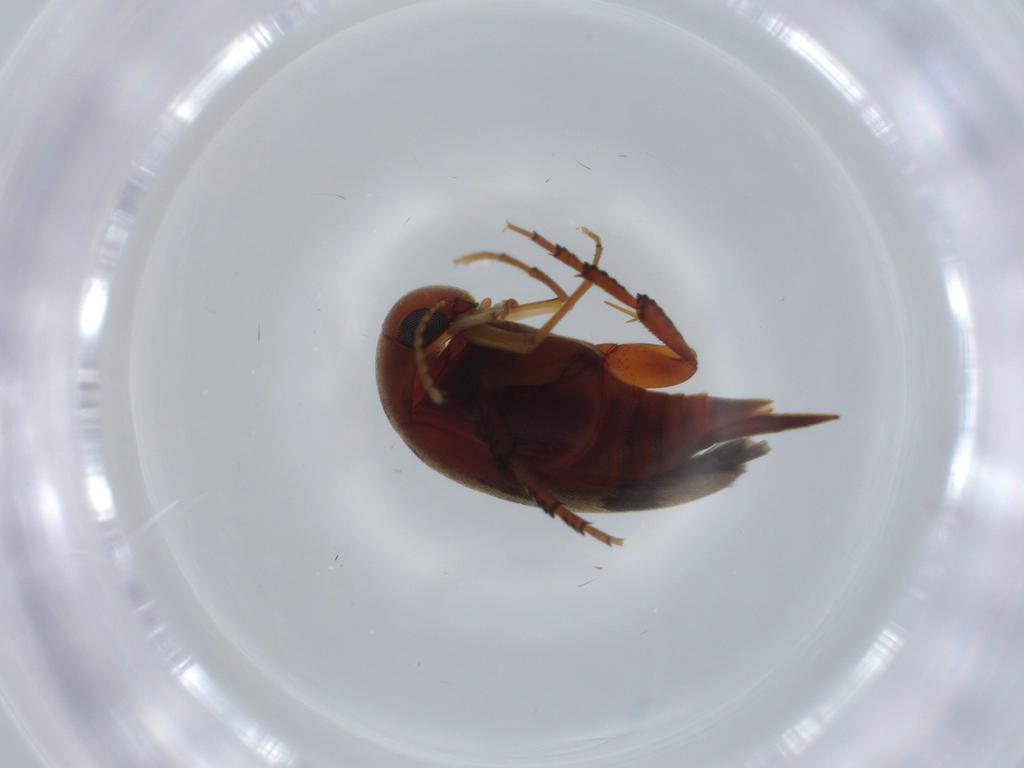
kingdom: Animalia
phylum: Arthropoda
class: Insecta
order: Coleoptera
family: Mordellidae
